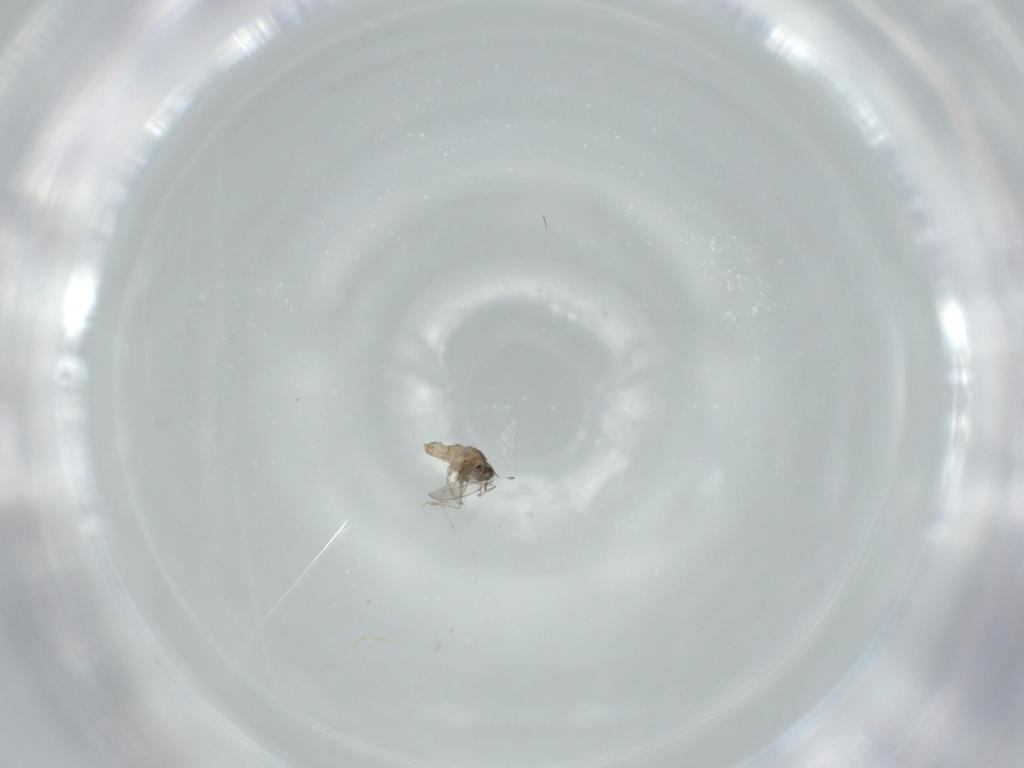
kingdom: Animalia
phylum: Arthropoda
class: Insecta
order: Diptera
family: Cecidomyiidae
